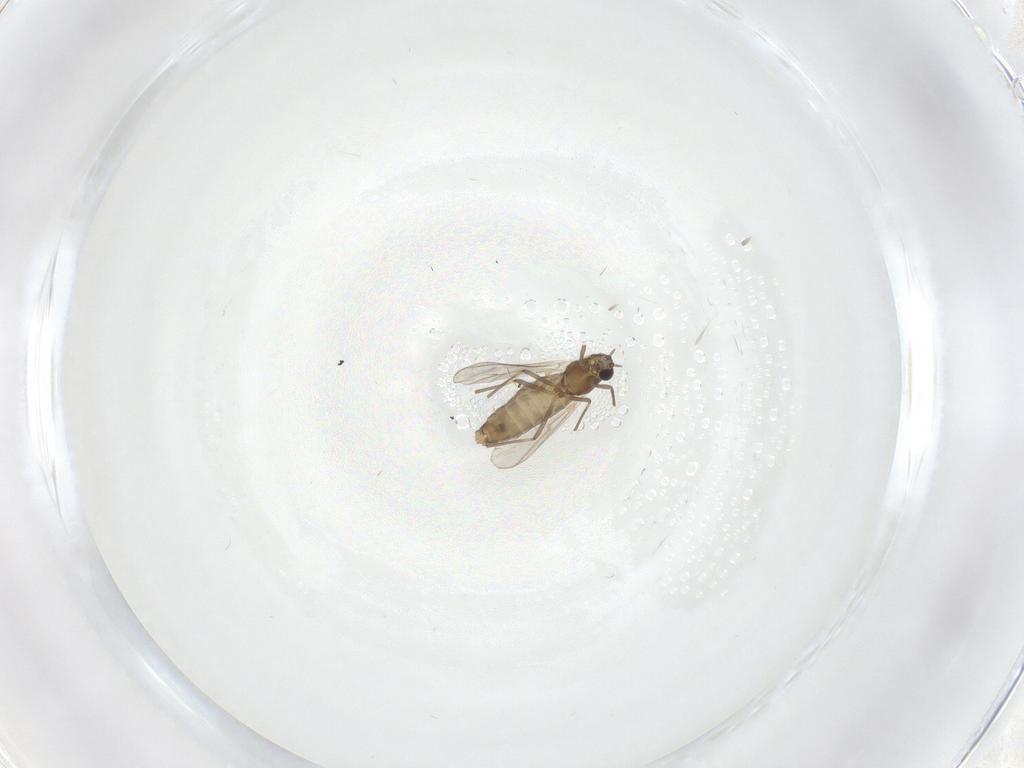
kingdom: Animalia
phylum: Arthropoda
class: Insecta
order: Diptera
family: Chironomidae
